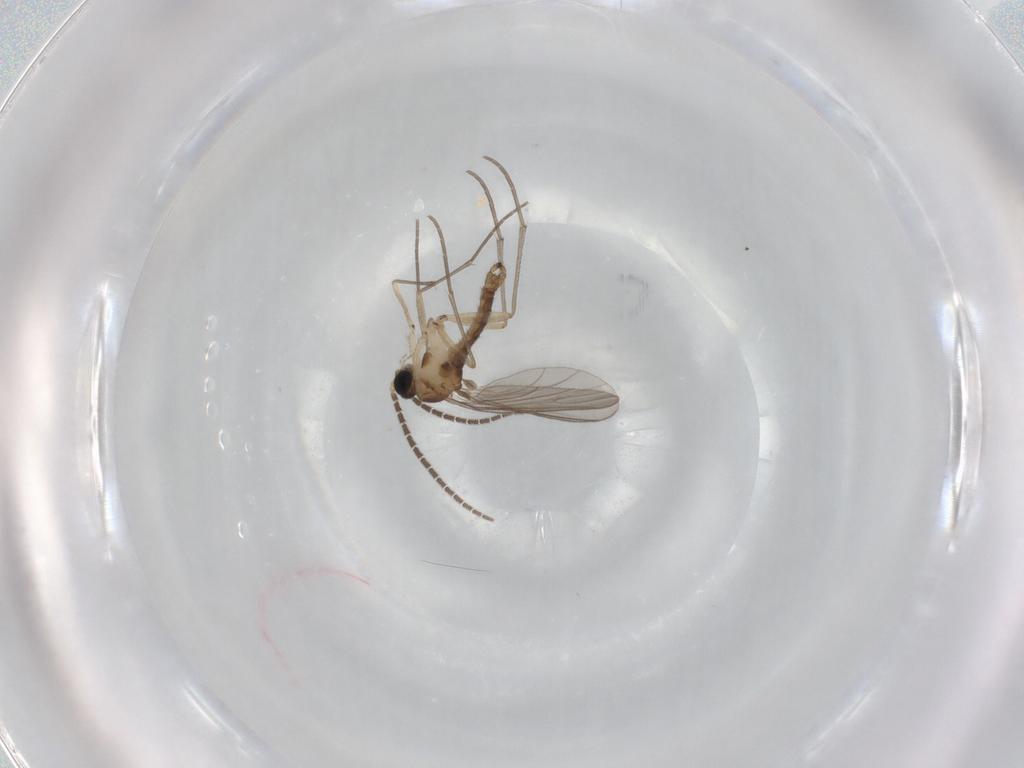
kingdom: Animalia
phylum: Arthropoda
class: Insecta
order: Diptera
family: Sciaridae
